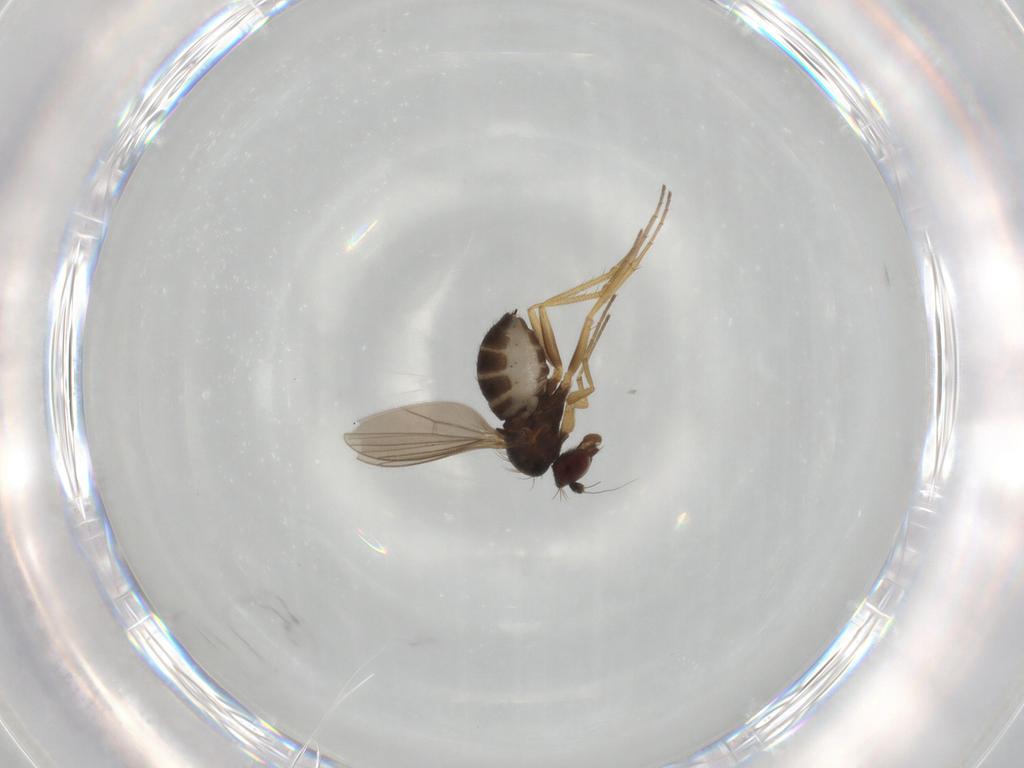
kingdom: Animalia
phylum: Arthropoda
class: Insecta
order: Diptera
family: Dolichopodidae
